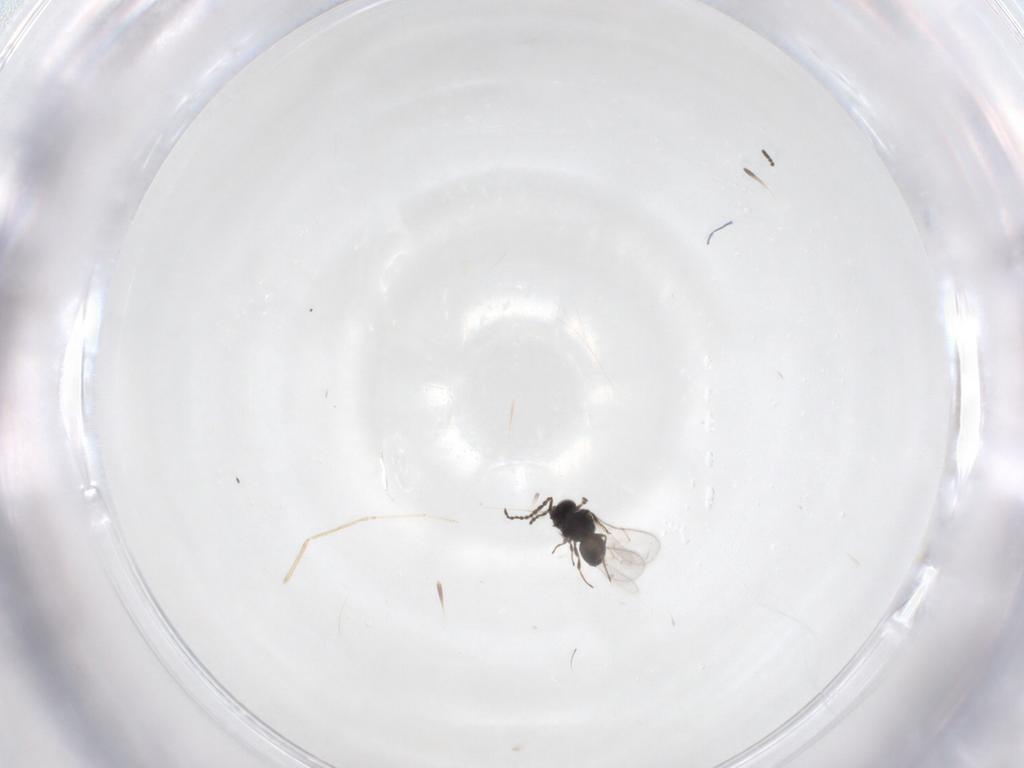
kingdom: Animalia
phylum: Arthropoda
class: Insecta
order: Hymenoptera
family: Scelionidae
